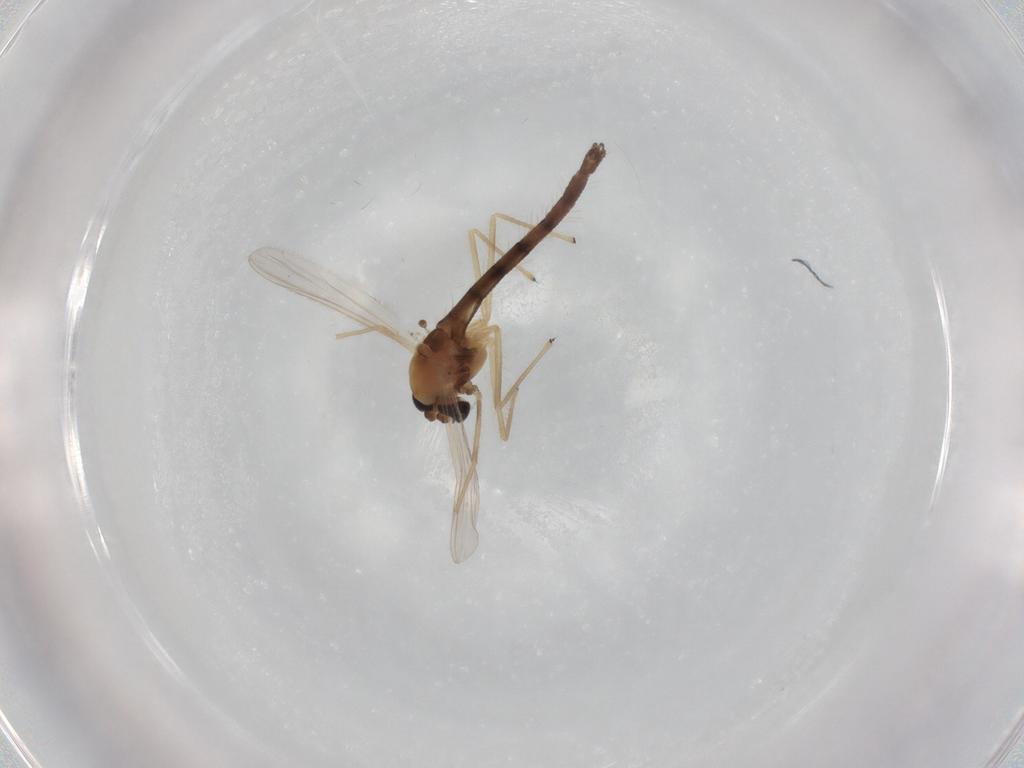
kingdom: Animalia
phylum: Arthropoda
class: Insecta
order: Diptera
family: Chironomidae
